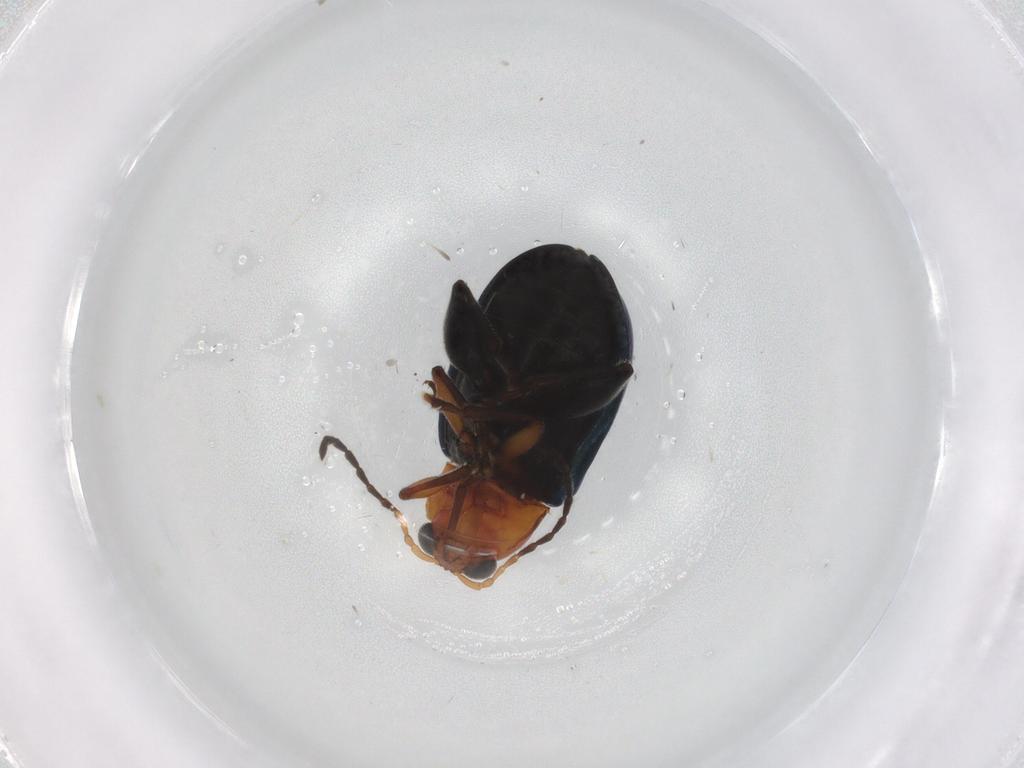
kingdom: Animalia
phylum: Arthropoda
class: Insecta
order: Coleoptera
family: Chrysomelidae
